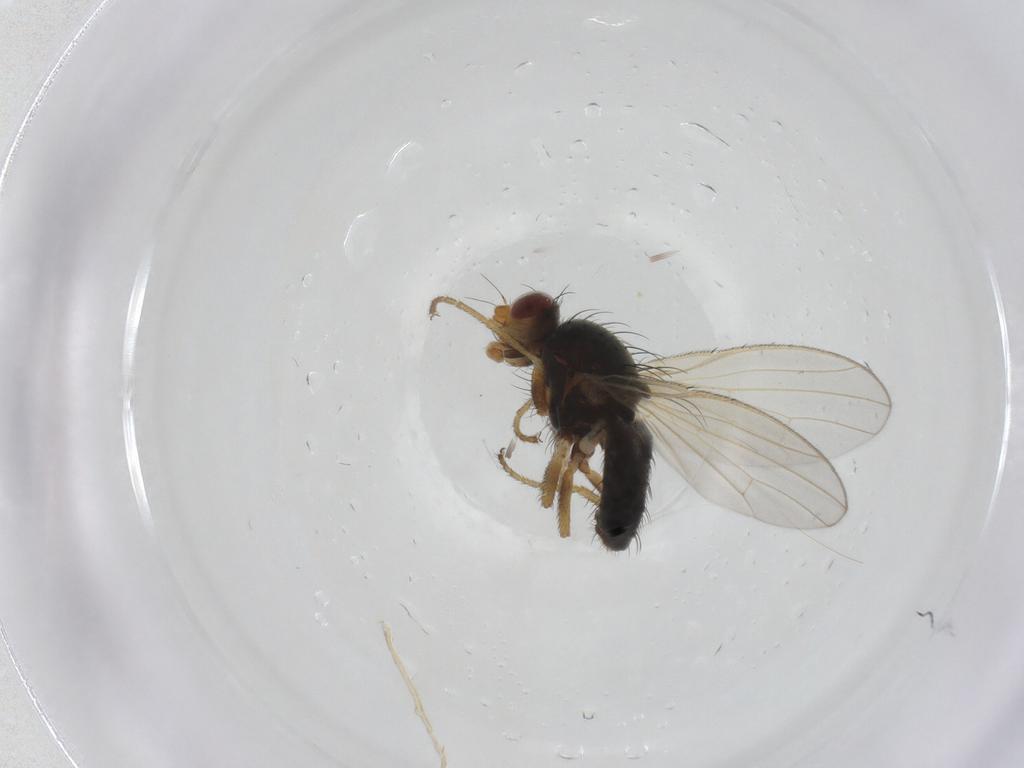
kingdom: Animalia
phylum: Arthropoda
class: Insecta
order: Diptera
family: Heleomyzidae
